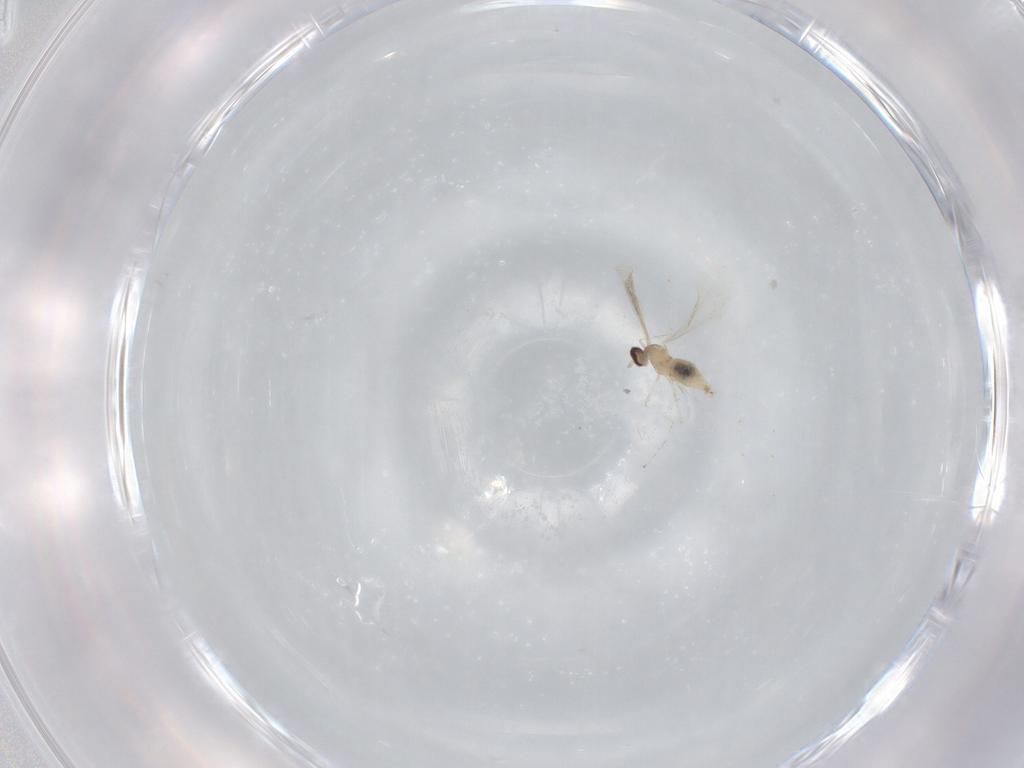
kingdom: Animalia
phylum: Arthropoda
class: Insecta
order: Diptera
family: Cecidomyiidae
